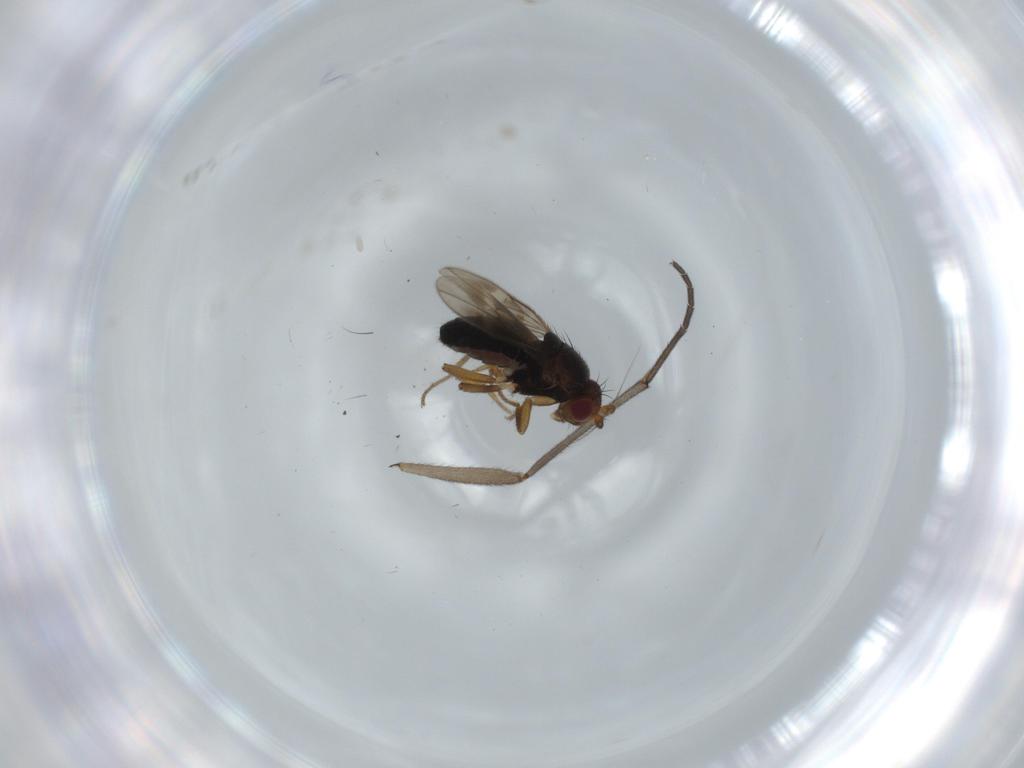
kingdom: Animalia
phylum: Arthropoda
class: Insecta
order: Diptera
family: Sphaeroceridae
